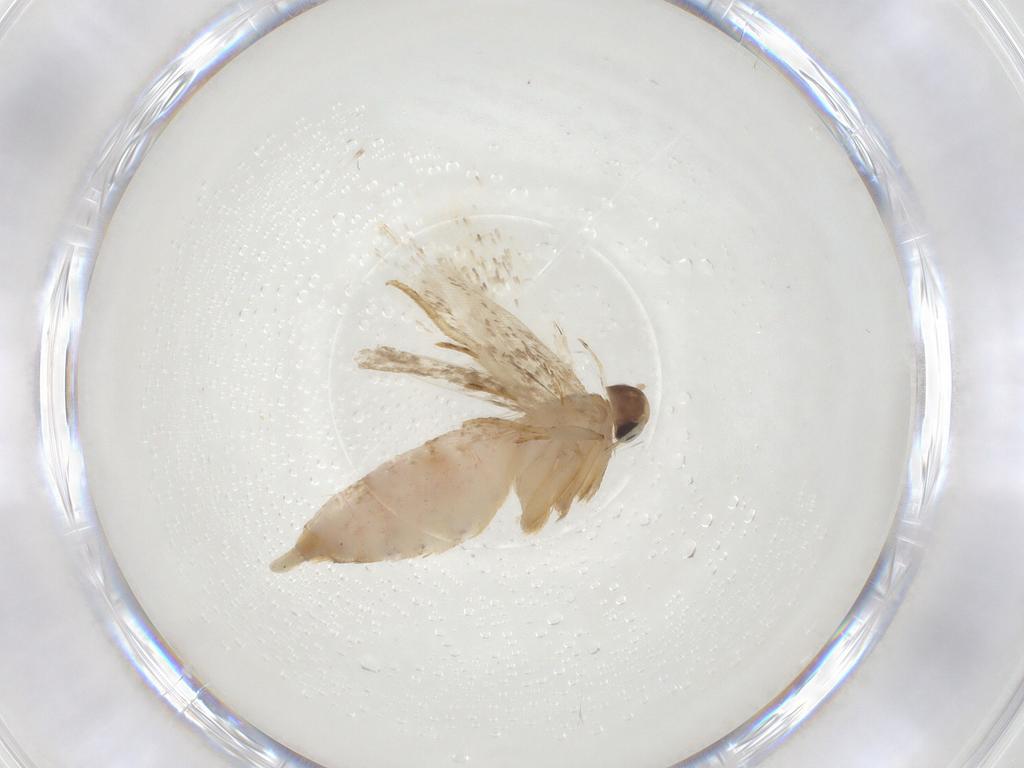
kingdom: Animalia
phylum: Arthropoda
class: Insecta
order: Lepidoptera
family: Gelechiidae
